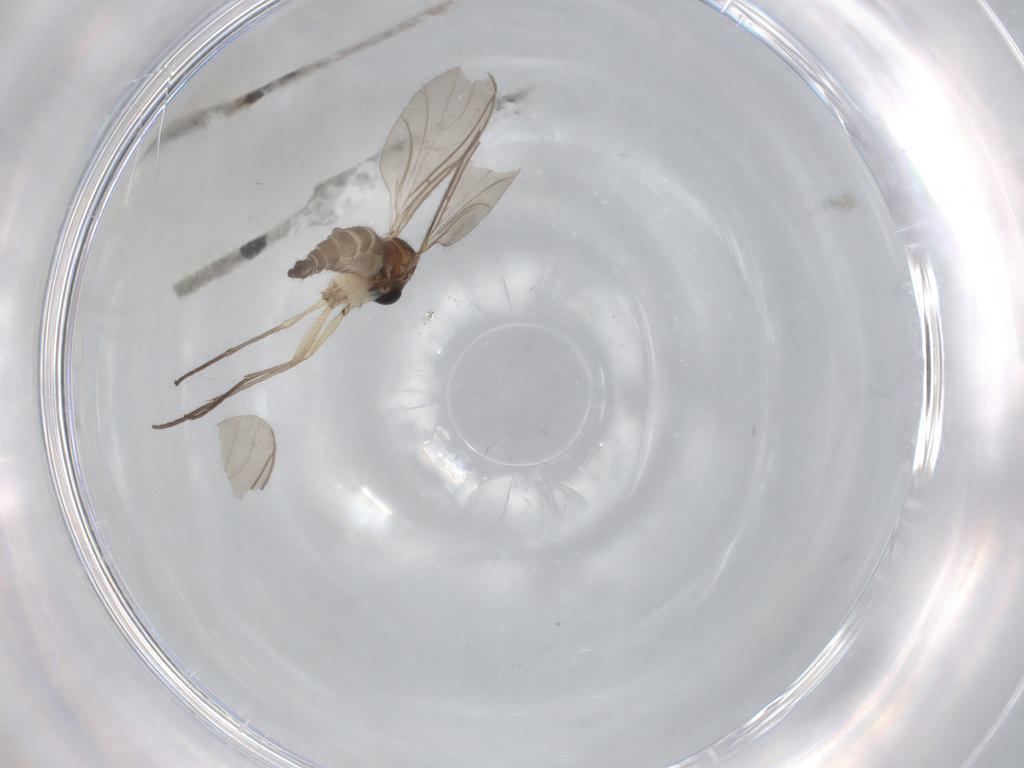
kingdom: Animalia
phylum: Arthropoda
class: Insecta
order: Diptera
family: Sciaridae
